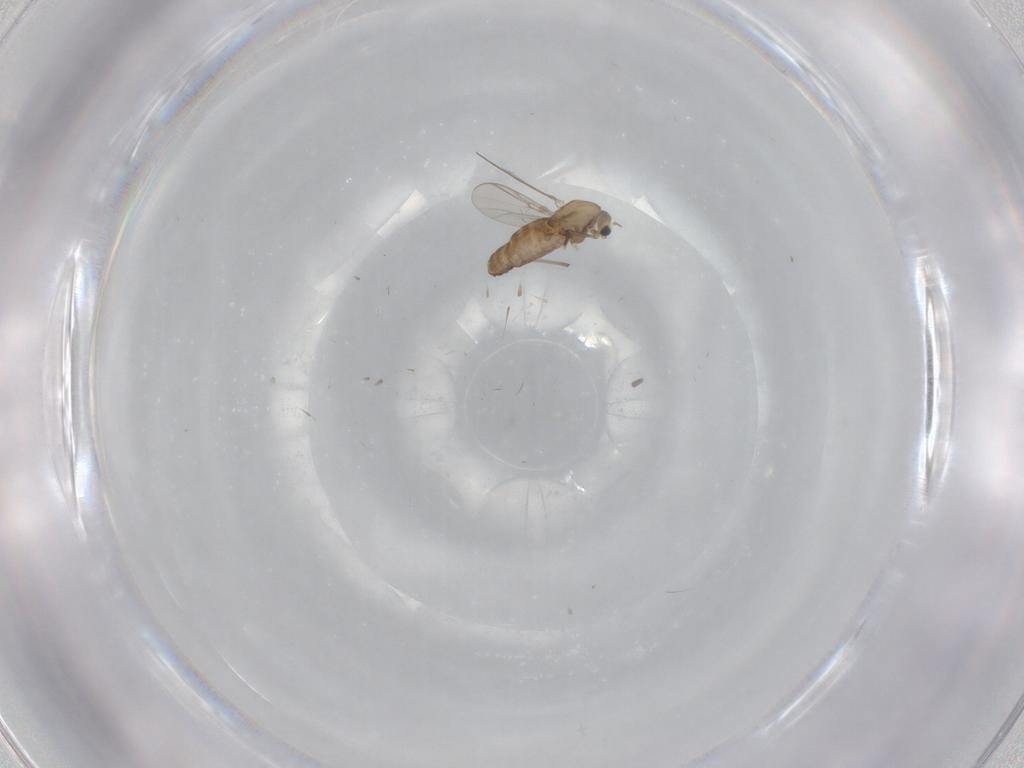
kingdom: Animalia
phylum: Arthropoda
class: Insecta
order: Diptera
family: Chironomidae
